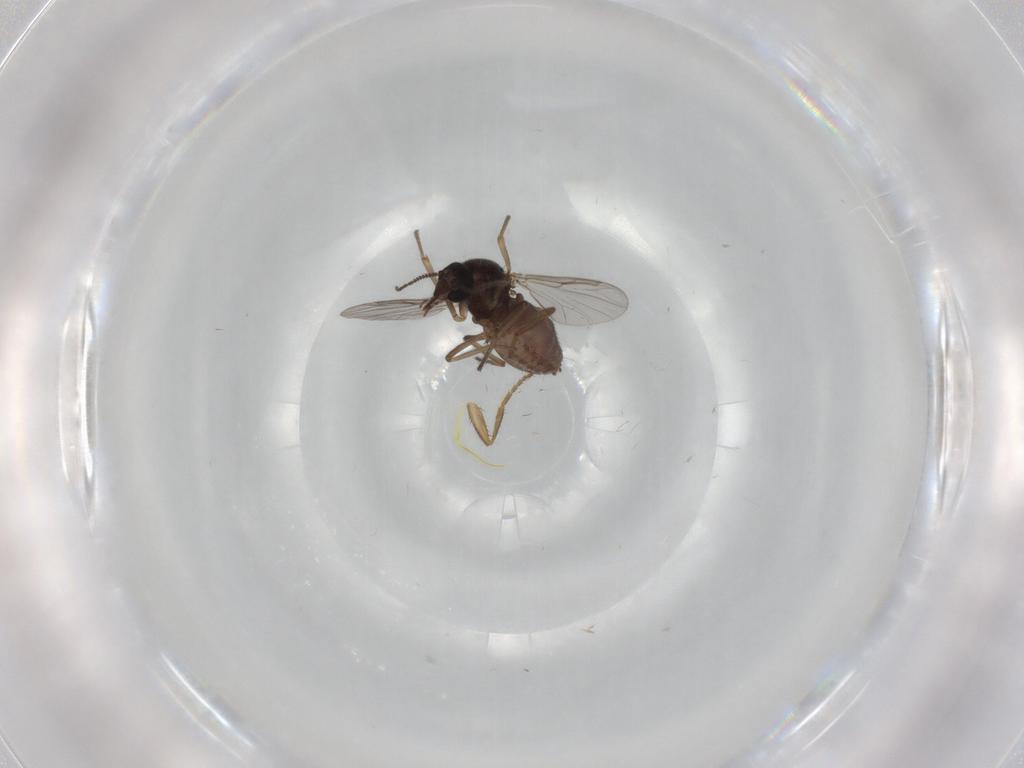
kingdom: Animalia
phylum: Arthropoda
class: Insecta
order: Diptera
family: Ceratopogonidae
